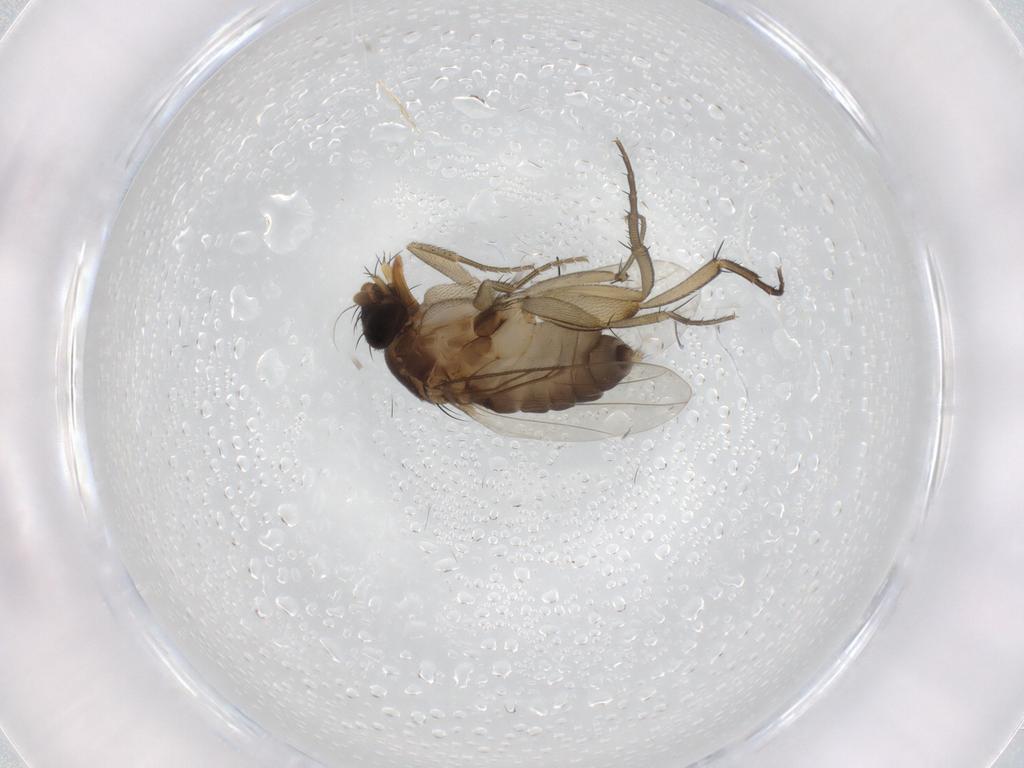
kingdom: Animalia
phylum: Arthropoda
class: Insecta
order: Diptera
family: Phoridae
